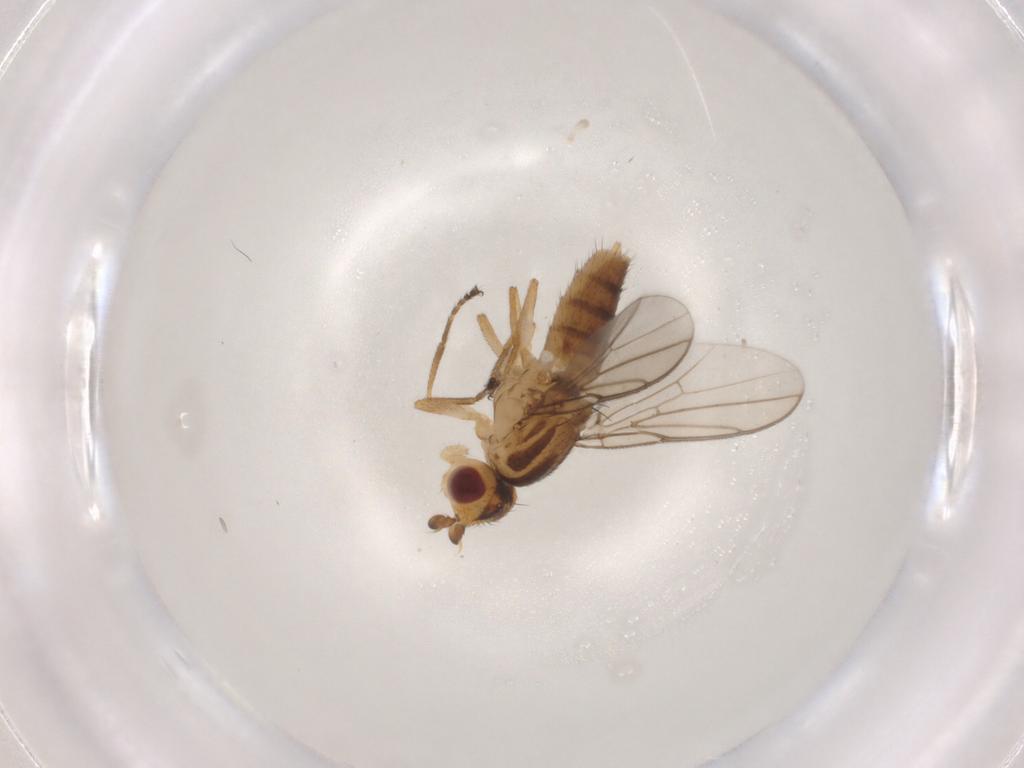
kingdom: Animalia
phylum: Arthropoda
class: Insecta
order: Diptera
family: Chloropidae
